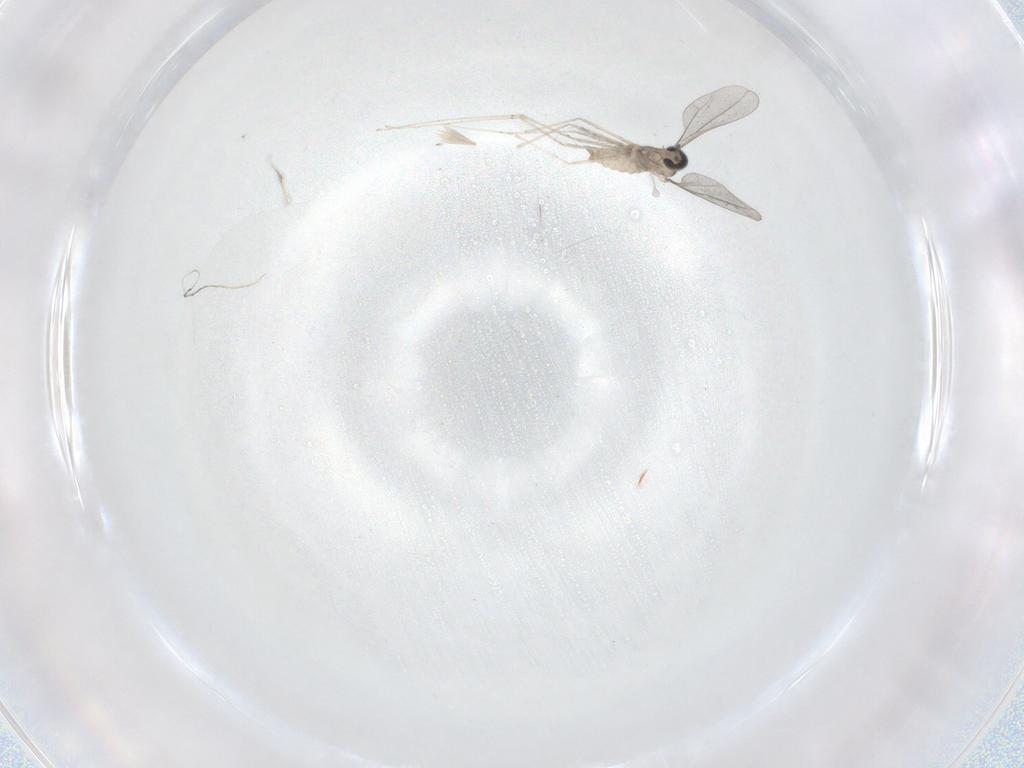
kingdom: Animalia
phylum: Arthropoda
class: Insecta
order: Diptera
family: Cecidomyiidae
